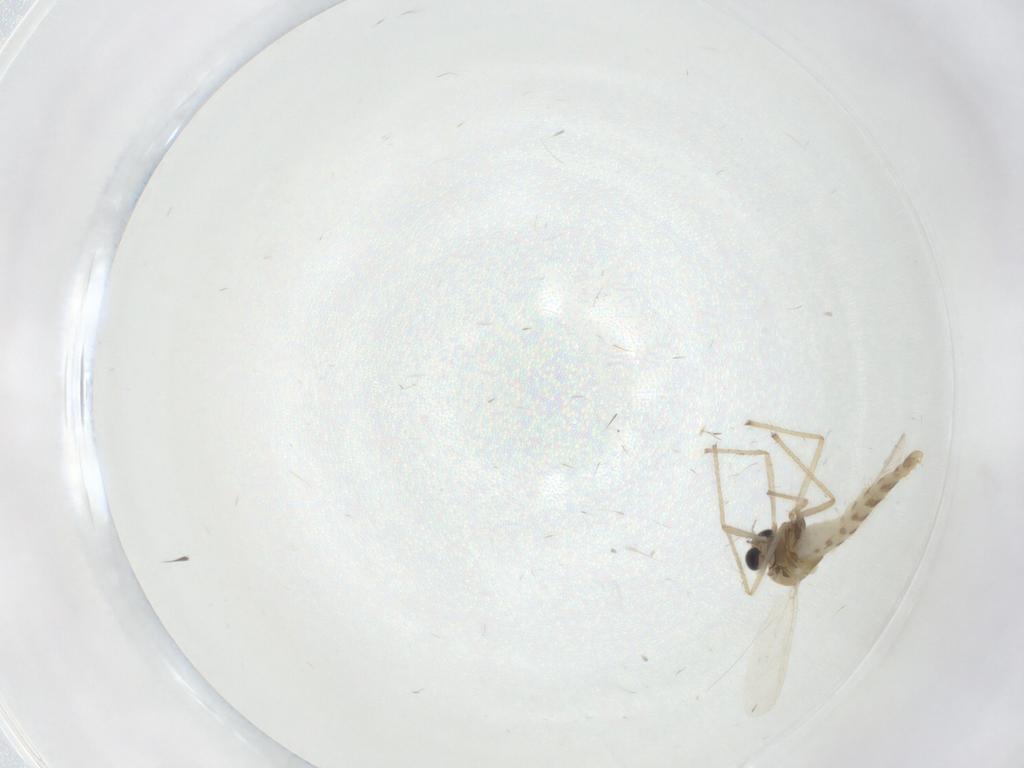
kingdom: Animalia
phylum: Arthropoda
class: Insecta
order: Diptera
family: Chironomidae
